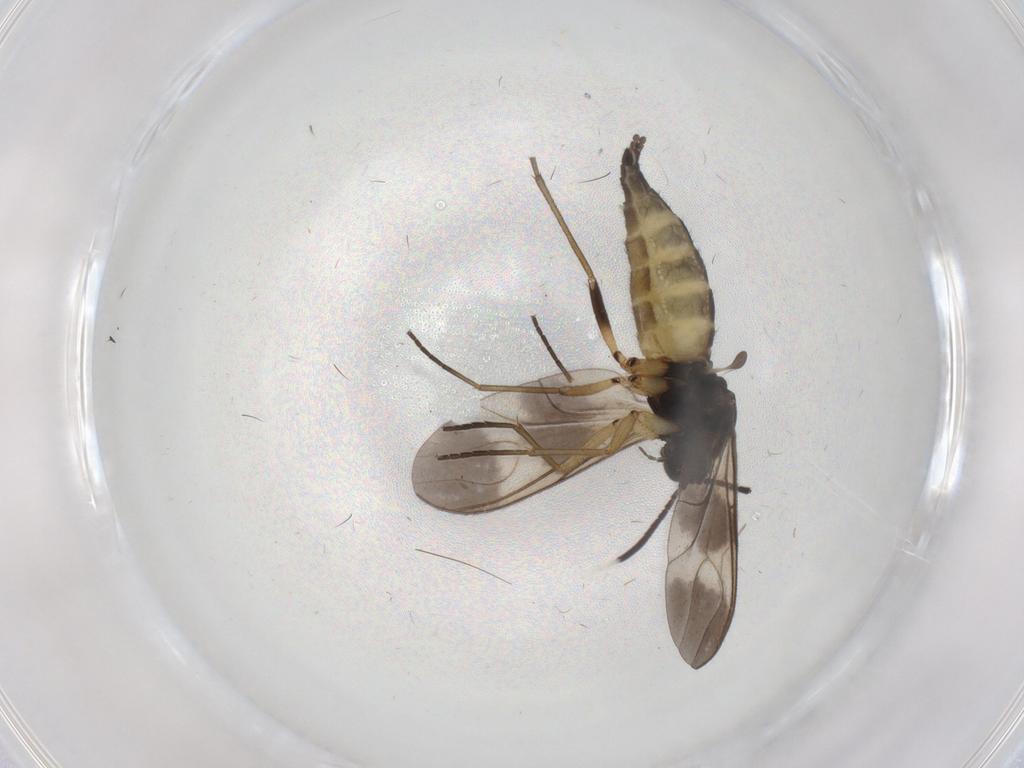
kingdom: Animalia
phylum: Arthropoda
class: Insecta
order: Diptera
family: Sciaridae
